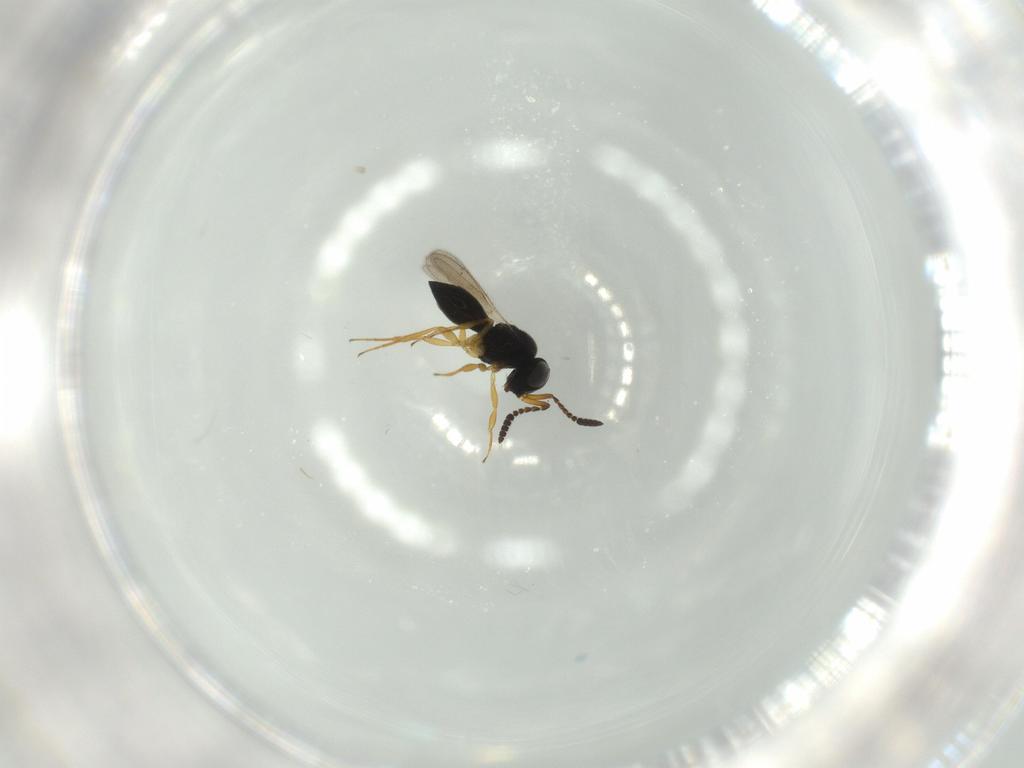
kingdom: Animalia
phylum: Arthropoda
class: Insecta
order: Hymenoptera
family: Scelionidae
